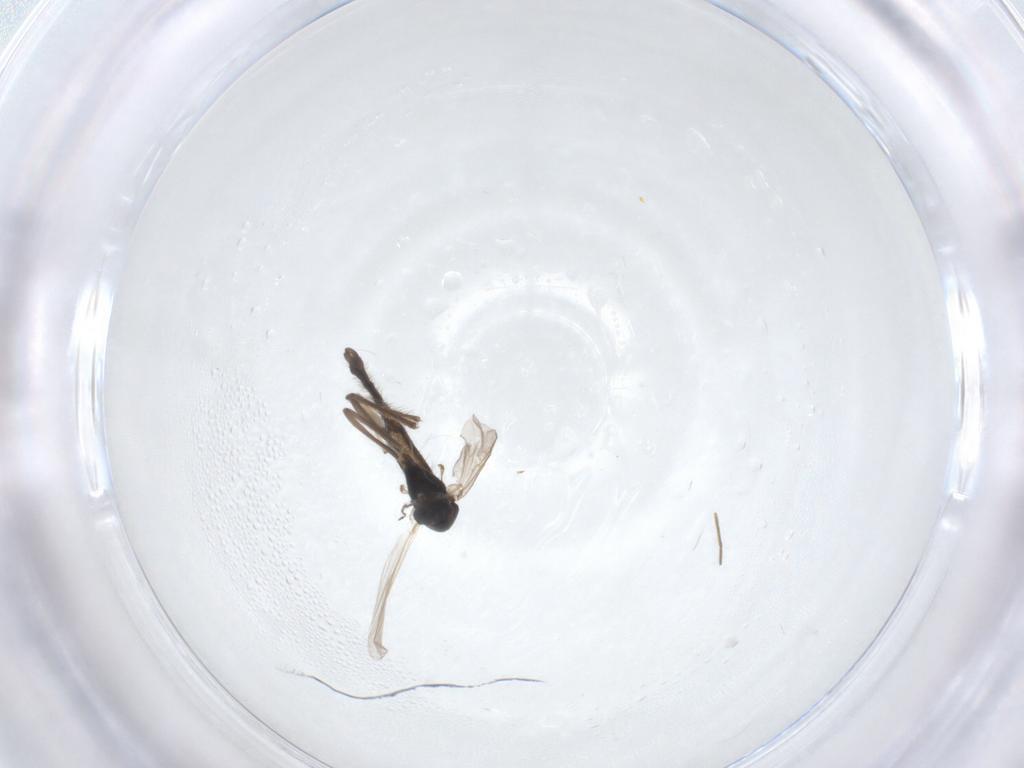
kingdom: Animalia
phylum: Arthropoda
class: Insecta
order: Diptera
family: Chironomidae
